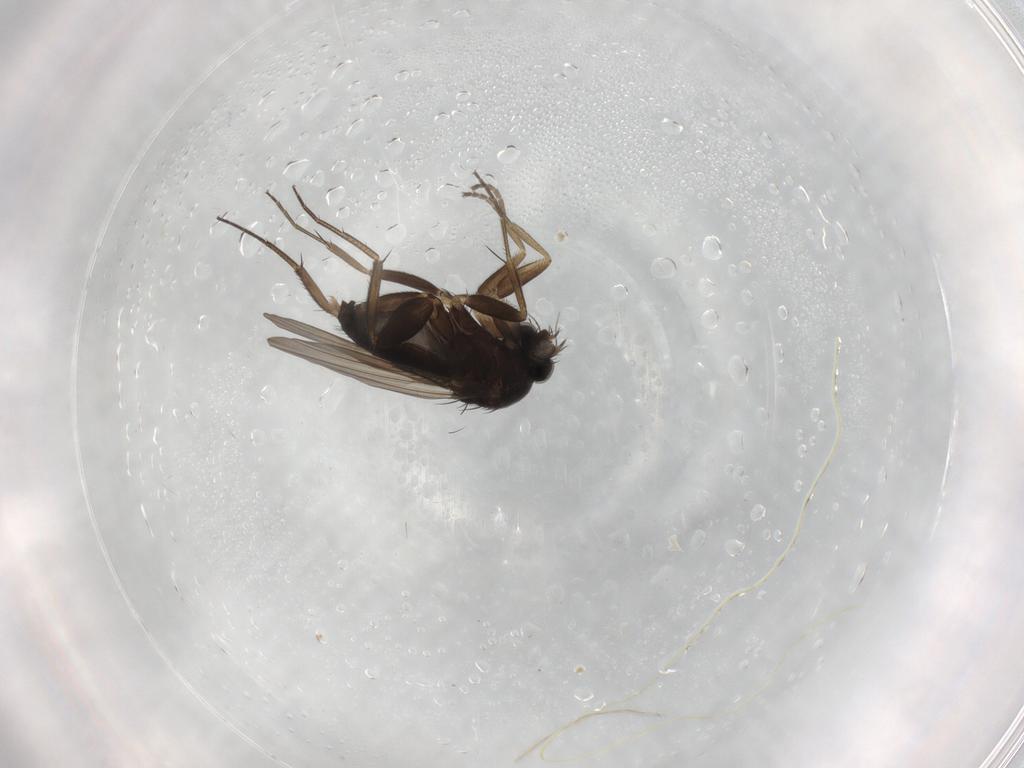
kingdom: Animalia
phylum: Arthropoda
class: Insecta
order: Diptera
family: Phoridae
